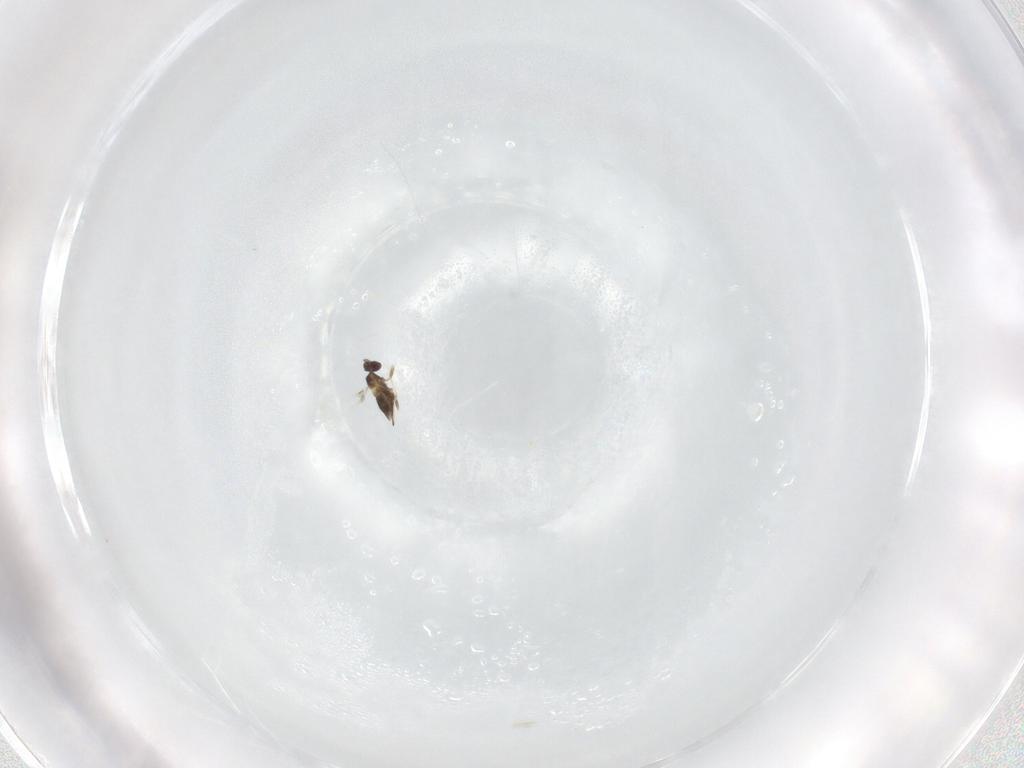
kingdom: Animalia
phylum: Arthropoda
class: Insecta
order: Hymenoptera
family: Mymaridae
